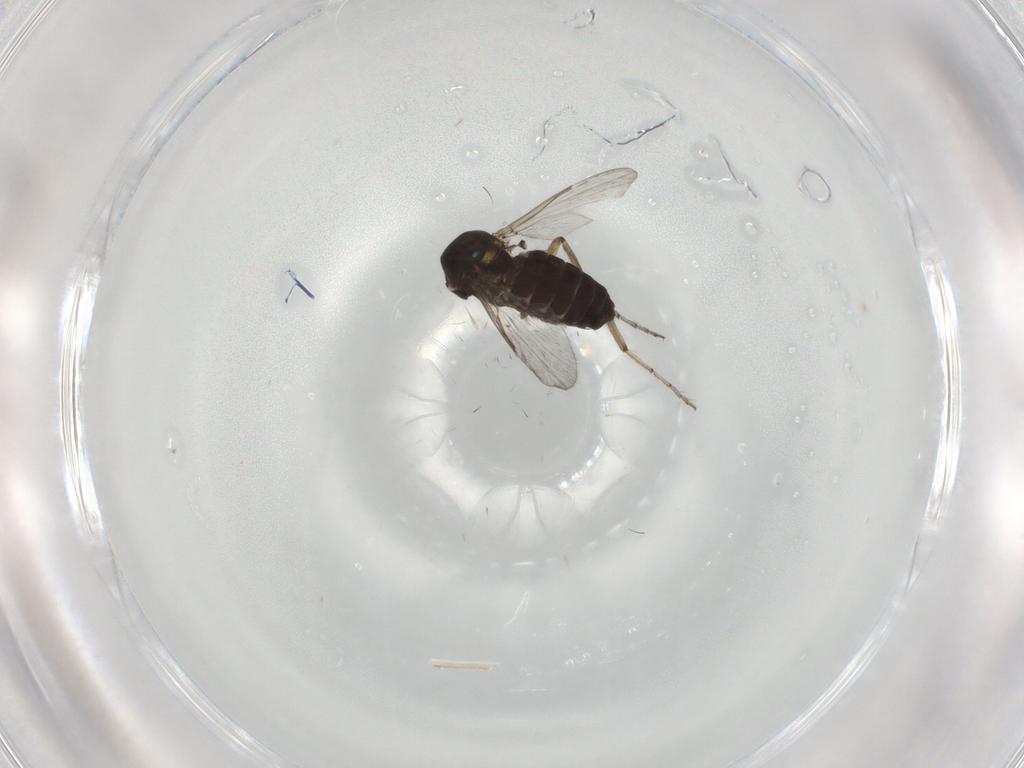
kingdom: Animalia
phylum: Arthropoda
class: Insecta
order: Diptera
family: Ceratopogonidae
